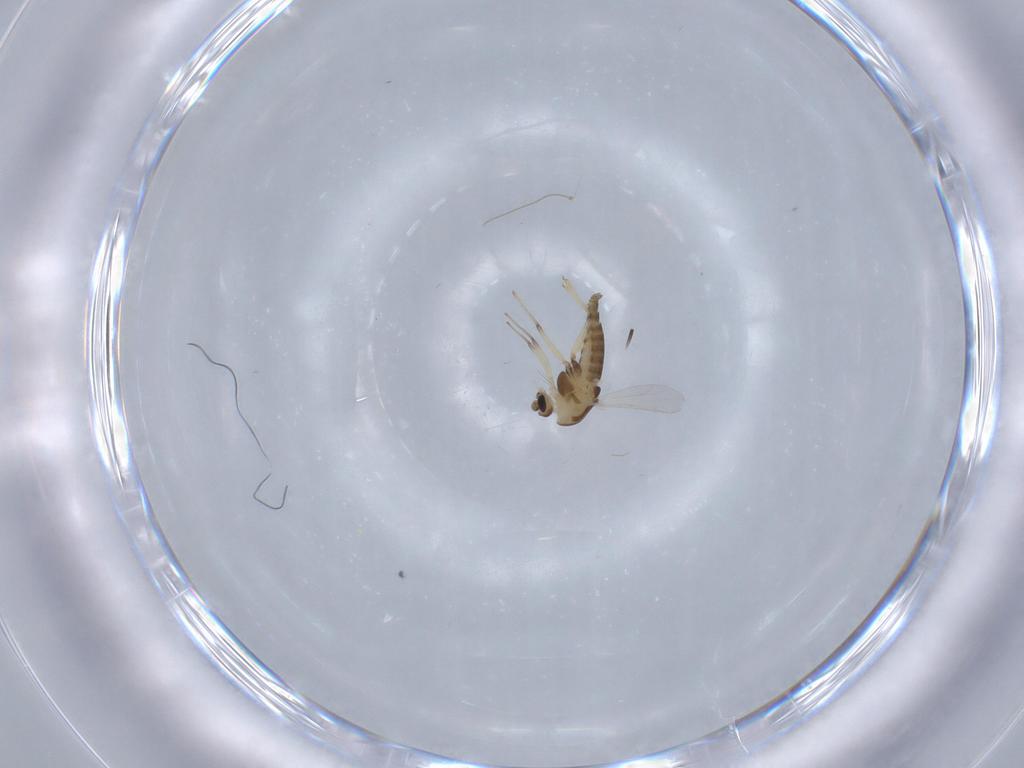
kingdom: Animalia
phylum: Arthropoda
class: Insecta
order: Diptera
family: Chironomidae
